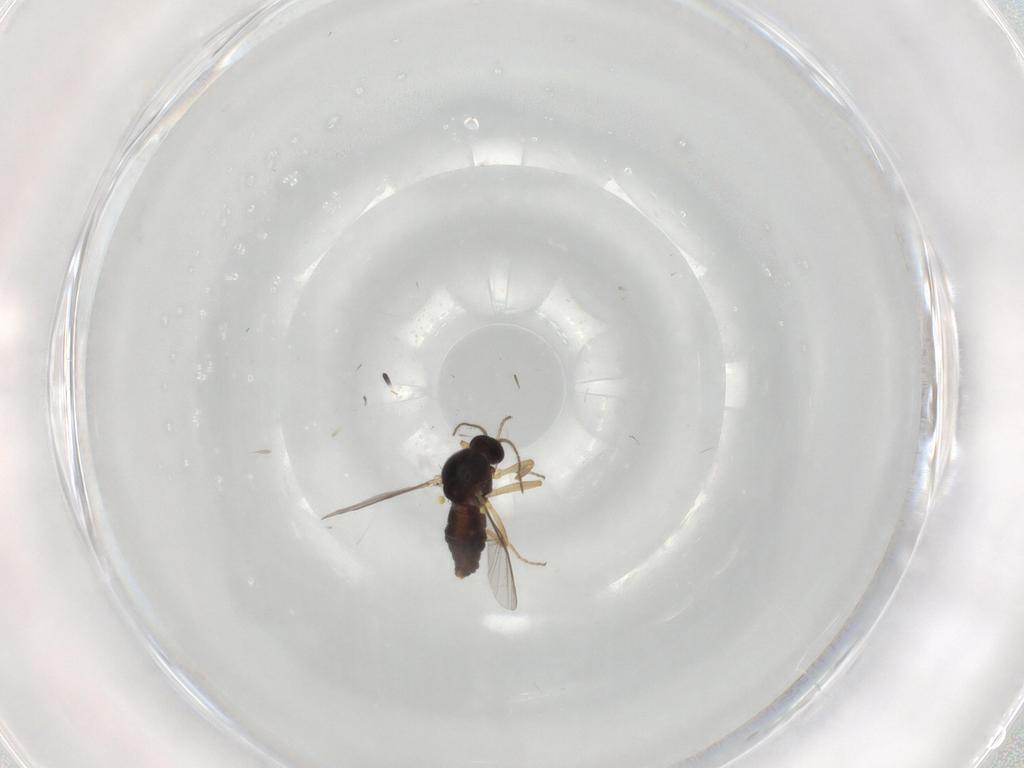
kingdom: Animalia
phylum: Arthropoda
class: Insecta
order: Diptera
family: Ceratopogonidae
